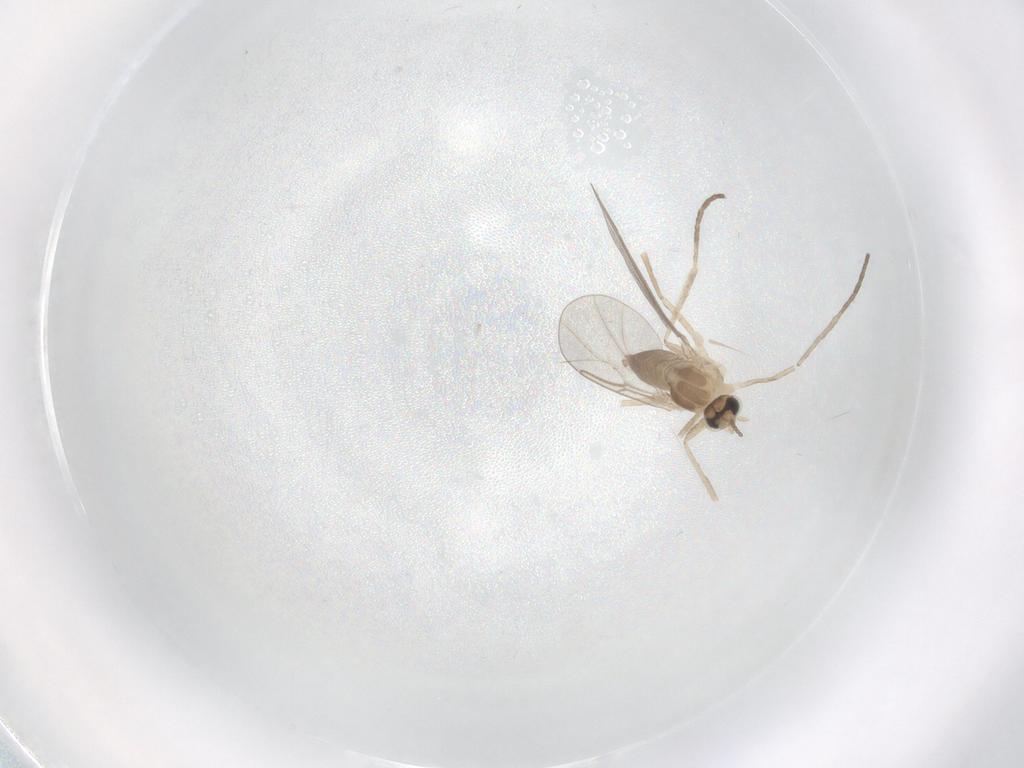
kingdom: Animalia
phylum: Arthropoda
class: Insecta
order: Diptera
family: Cecidomyiidae
